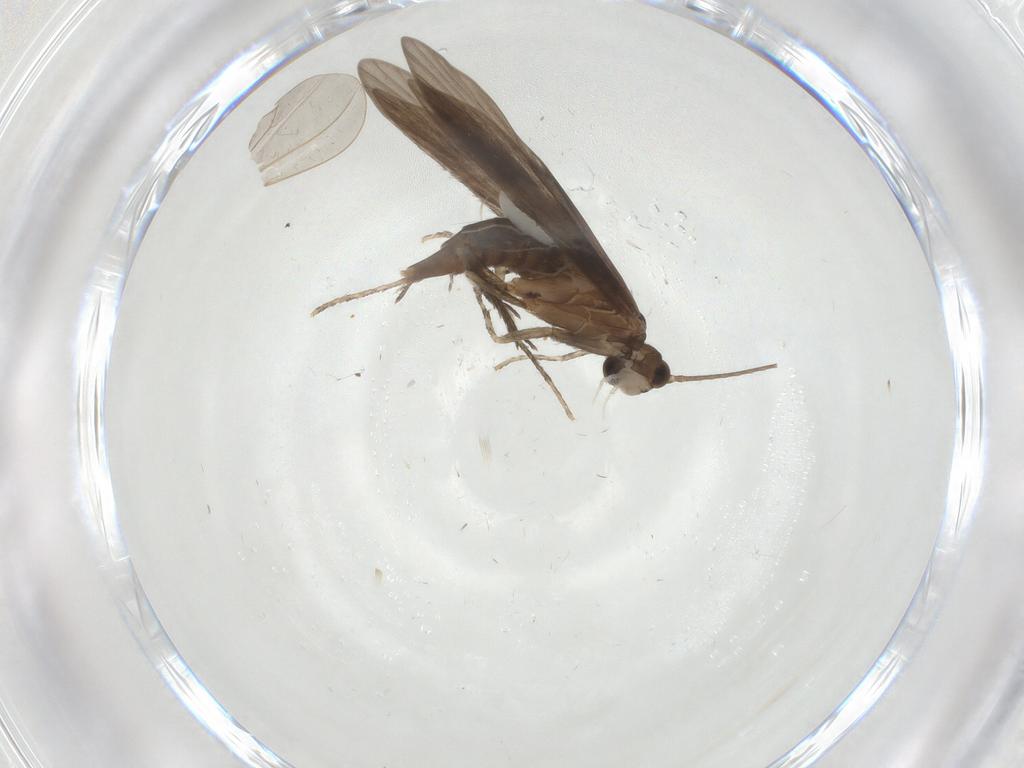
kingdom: Animalia
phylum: Arthropoda
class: Insecta
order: Trichoptera
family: Xiphocentronidae
